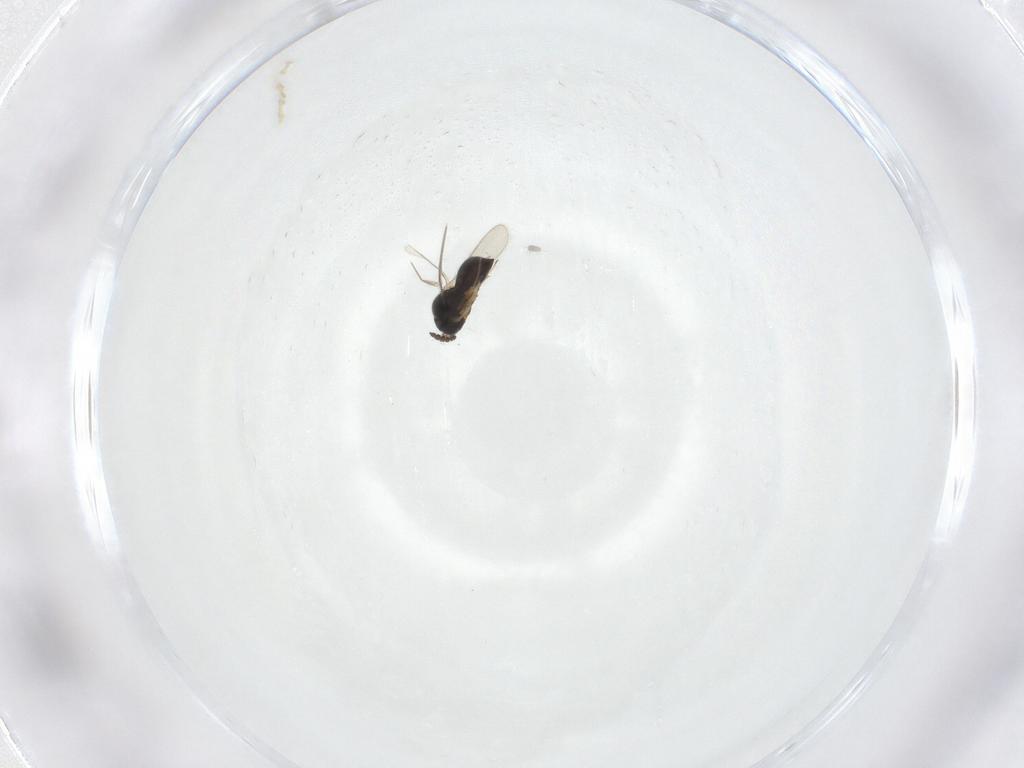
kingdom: Animalia
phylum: Arthropoda
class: Insecta
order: Hymenoptera
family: Scelionidae
